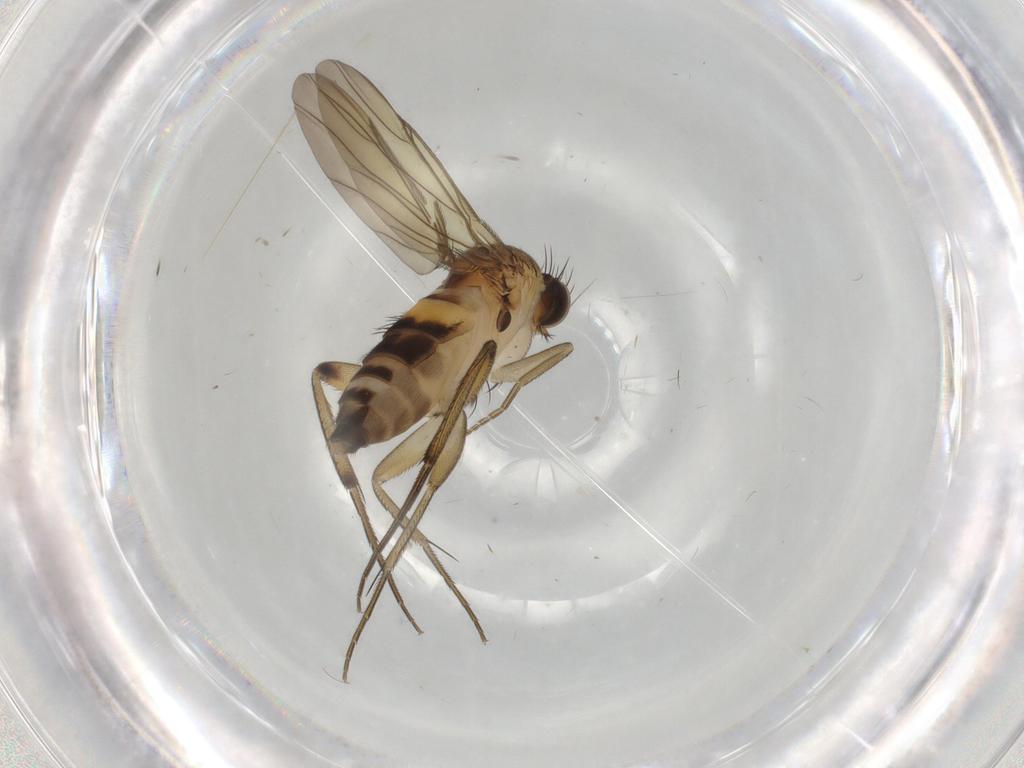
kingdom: Animalia
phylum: Arthropoda
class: Insecta
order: Diptera
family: Phoridae
